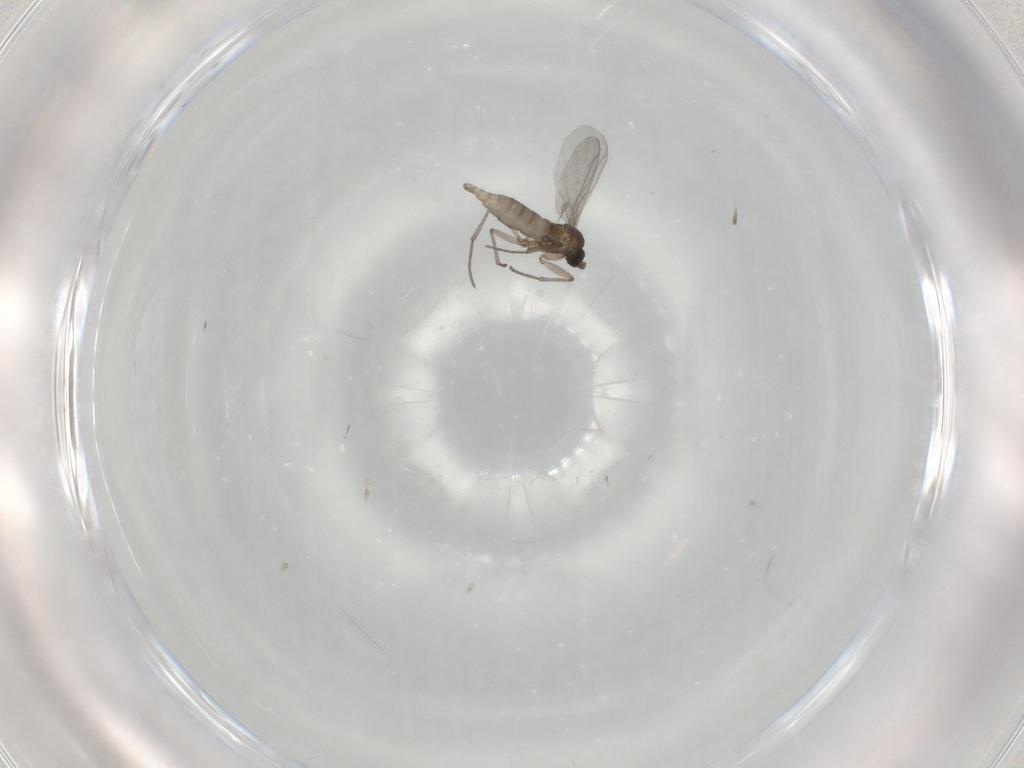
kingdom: Animalia
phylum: Arthropoda
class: Insecta
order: Diptera
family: Sciaridae
